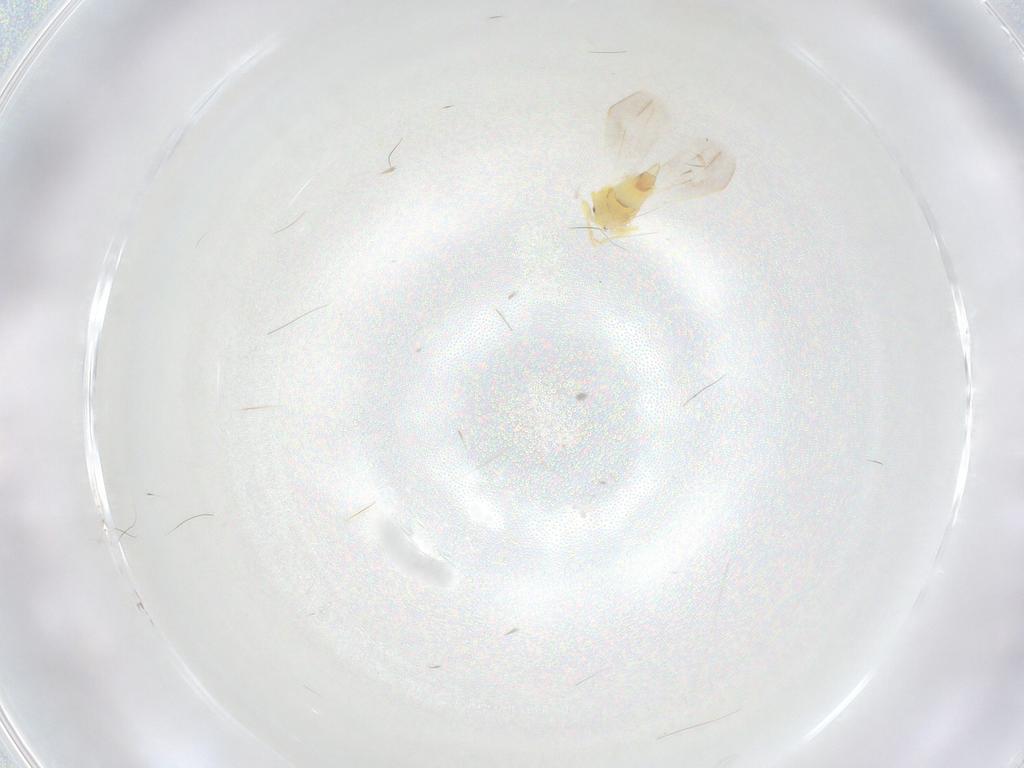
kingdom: Animalia
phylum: Arthropoda
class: Insecta
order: Hemiptera
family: Aleyrodidae
